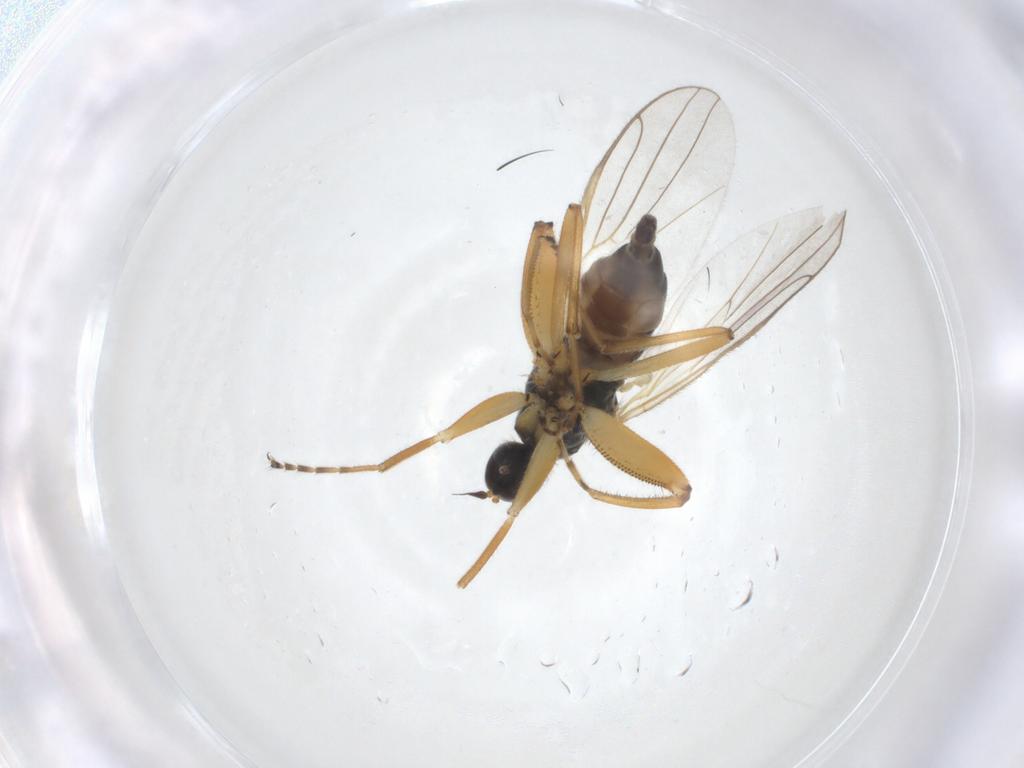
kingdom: Animalia
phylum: Arthropoda
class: Insecta
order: Diptera
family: Hybotidae
